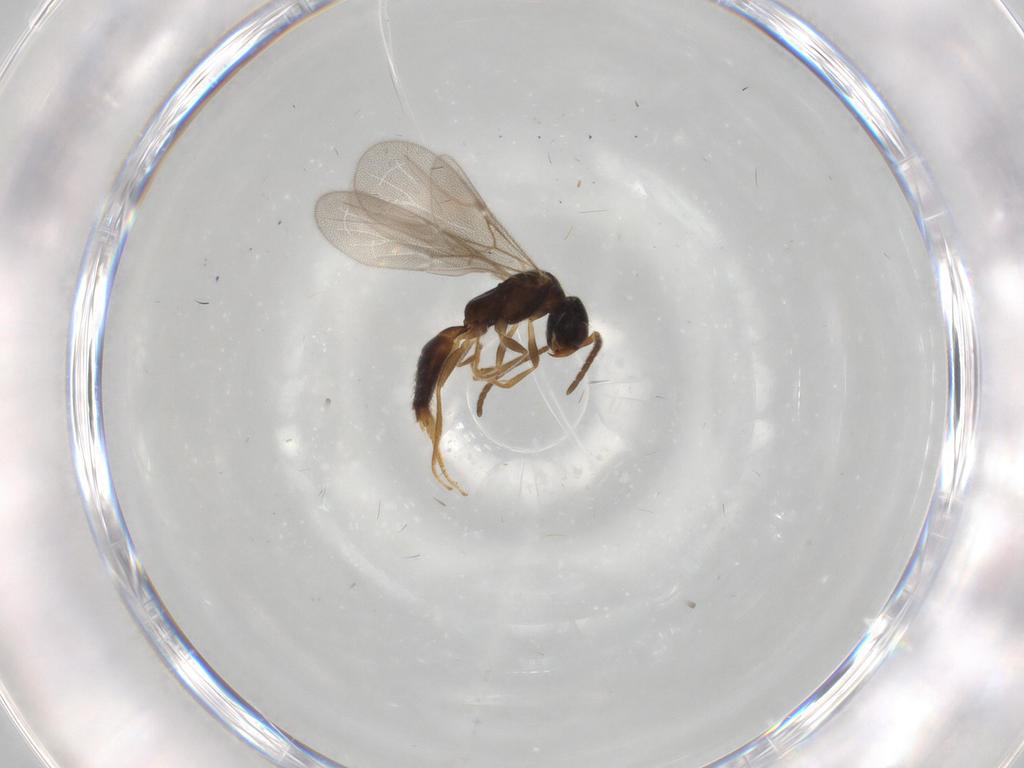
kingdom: Animalia
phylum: Arthropoda
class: Insecta
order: Hymenoptera
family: Bethylidae
